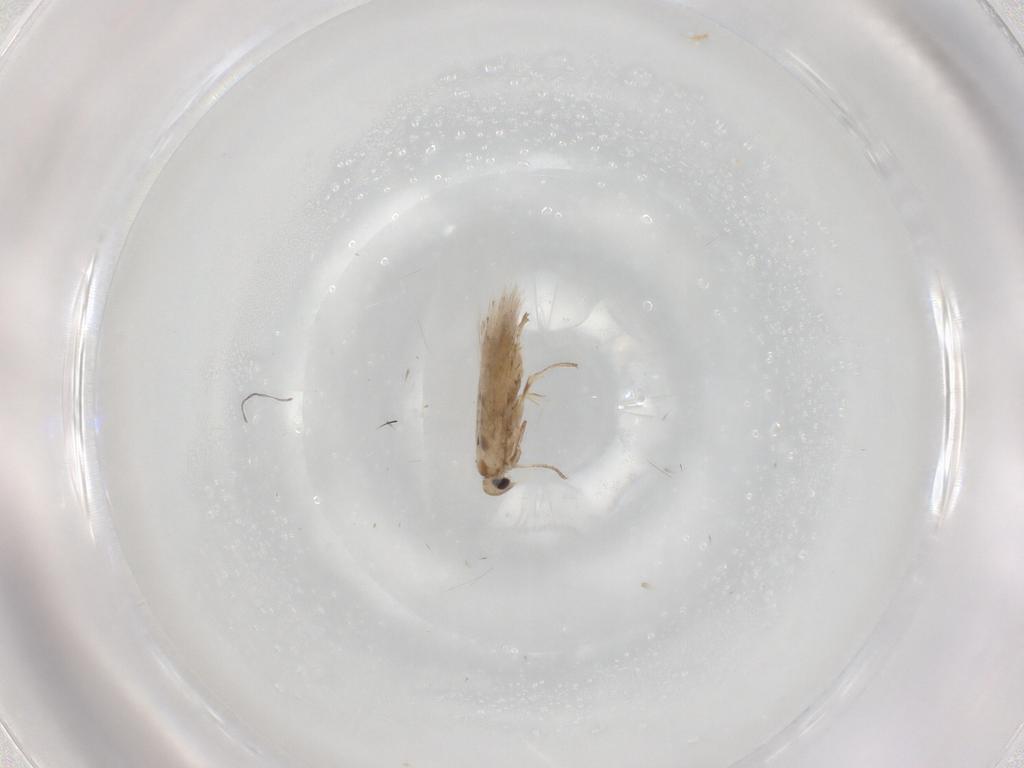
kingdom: Animalia
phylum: Arthropoda
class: Insecta
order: Lepidoptera
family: Nymphalidae
